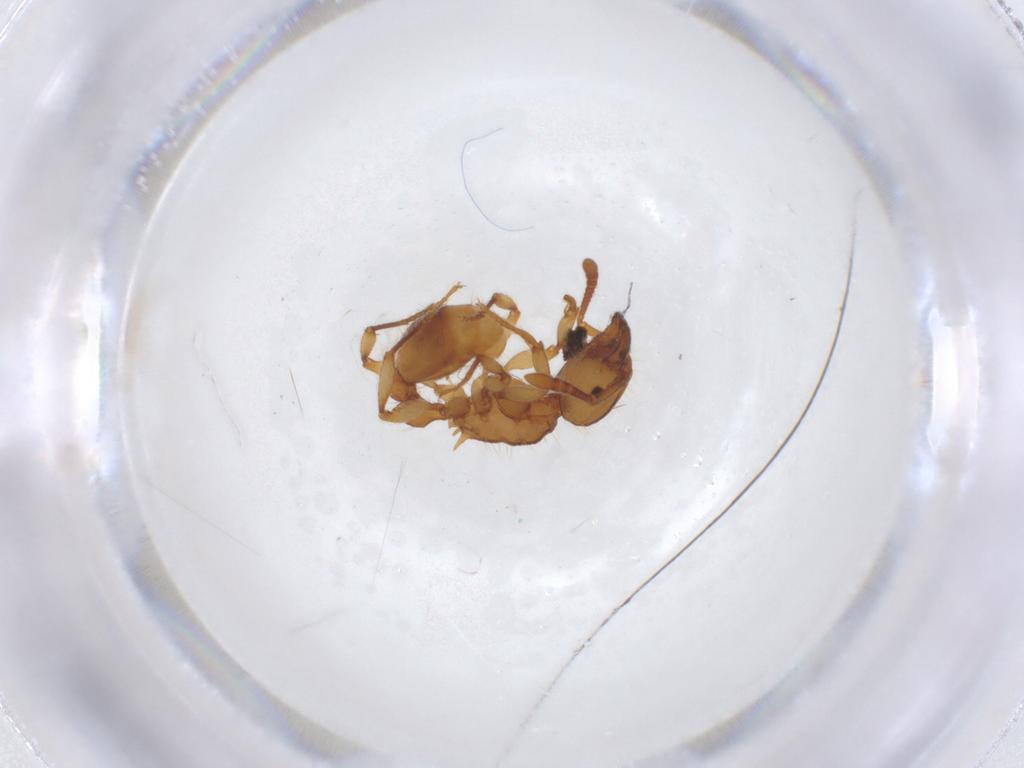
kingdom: Animalia
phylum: Arthropoda
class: Insecta
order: Hymenoptera
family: Formicidae
